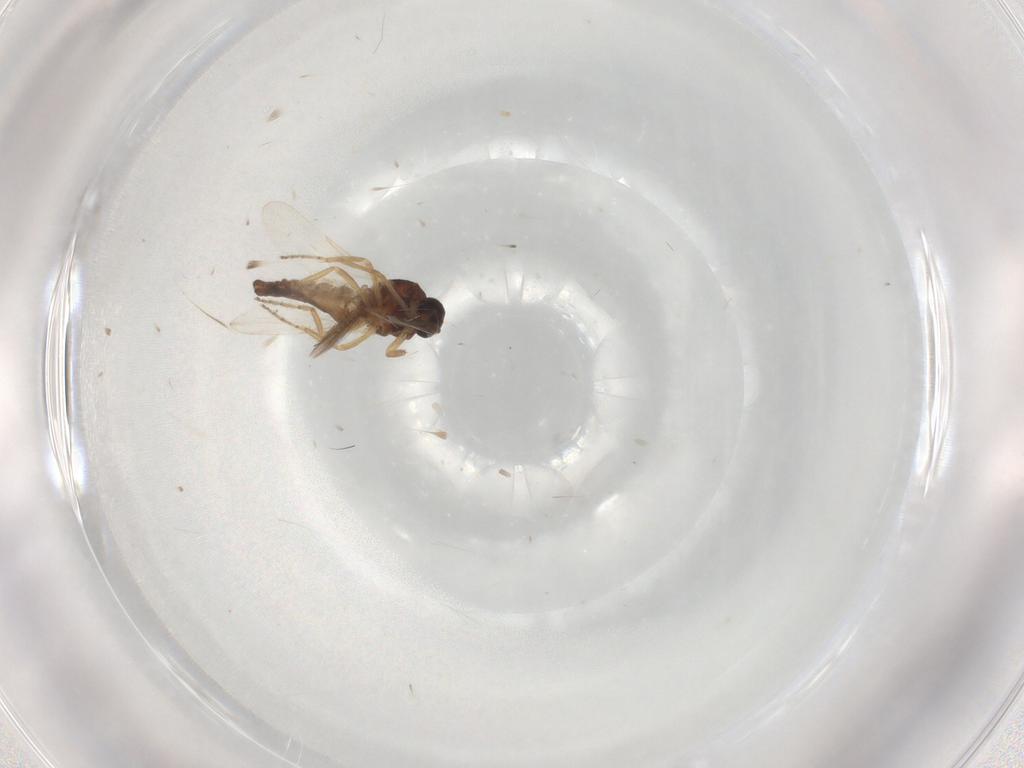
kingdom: Animalia
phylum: Arthropoda
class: Insecta
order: Diptera
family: Ceratopogonidae
